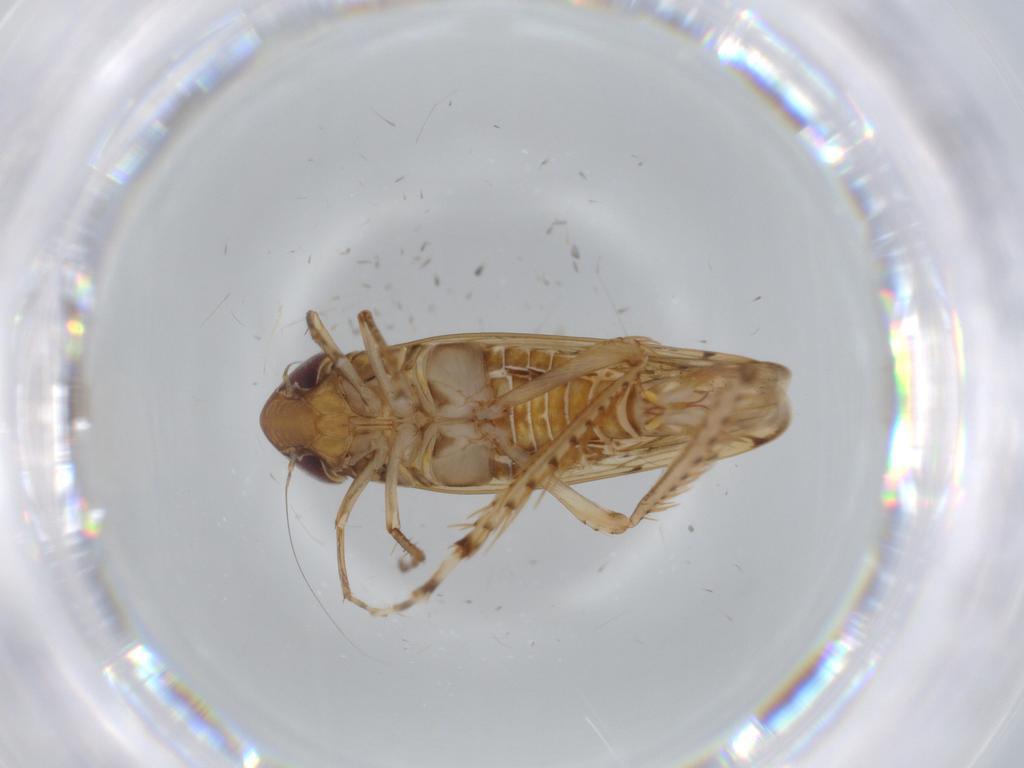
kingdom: Animalia
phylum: Arthropoda
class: Insecta
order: Hemiptera
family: Cicadellidae
